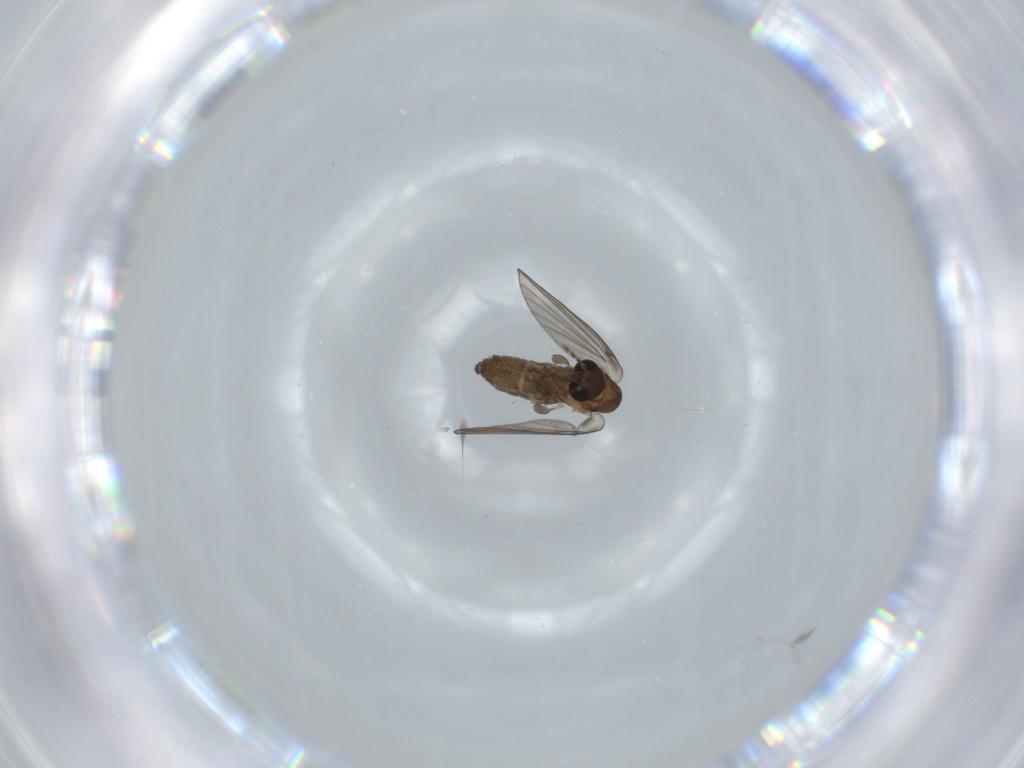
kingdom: Animalia
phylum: Arthropoda
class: Insecta
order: Diptera
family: Psychodidae
